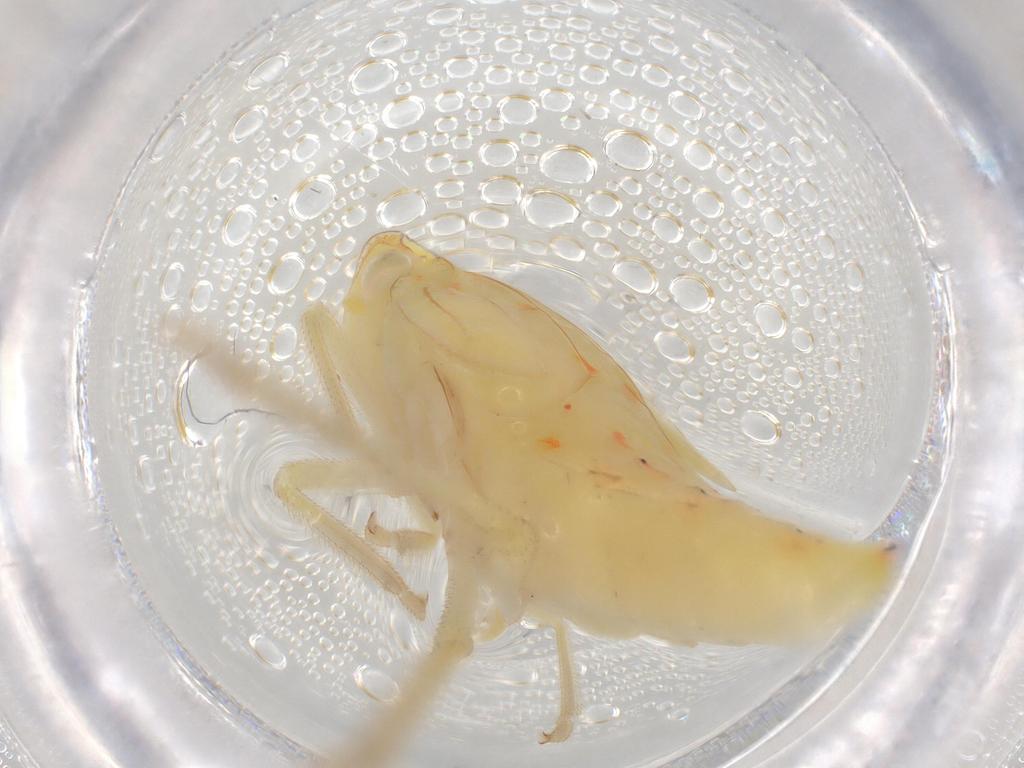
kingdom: Animalia
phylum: Arthropoda
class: Insecta
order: Hemiptera
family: Tropiduchidae
